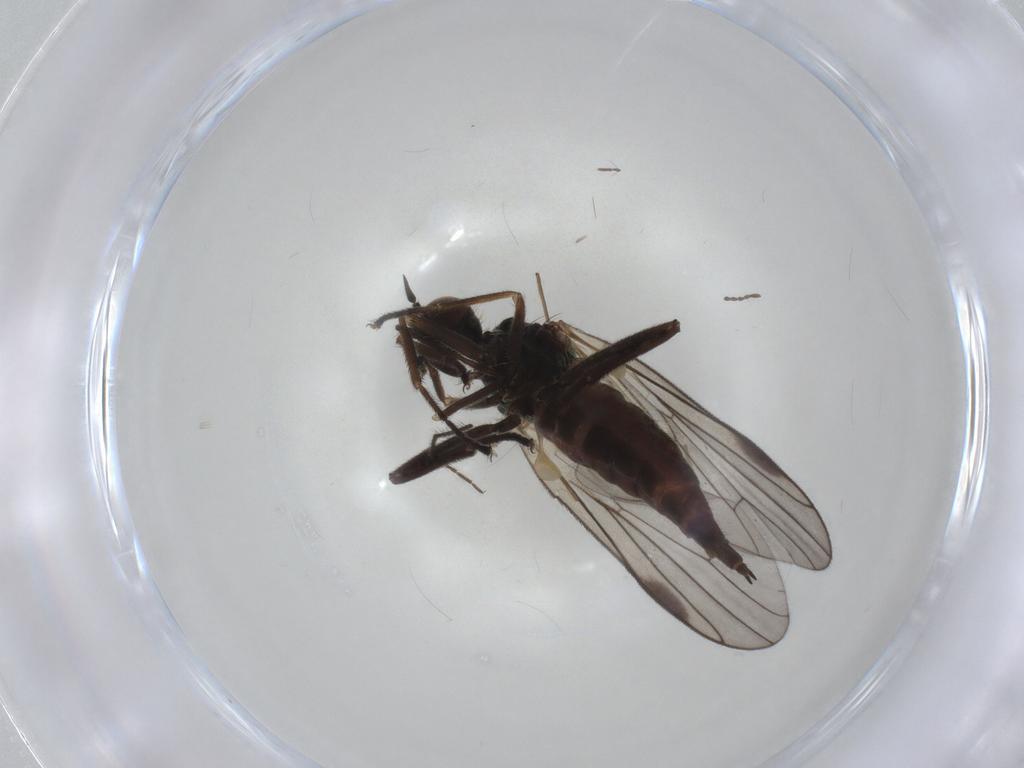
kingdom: Animalia
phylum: Arthropoda
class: Insecta
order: Diptera
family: Hybotidae
